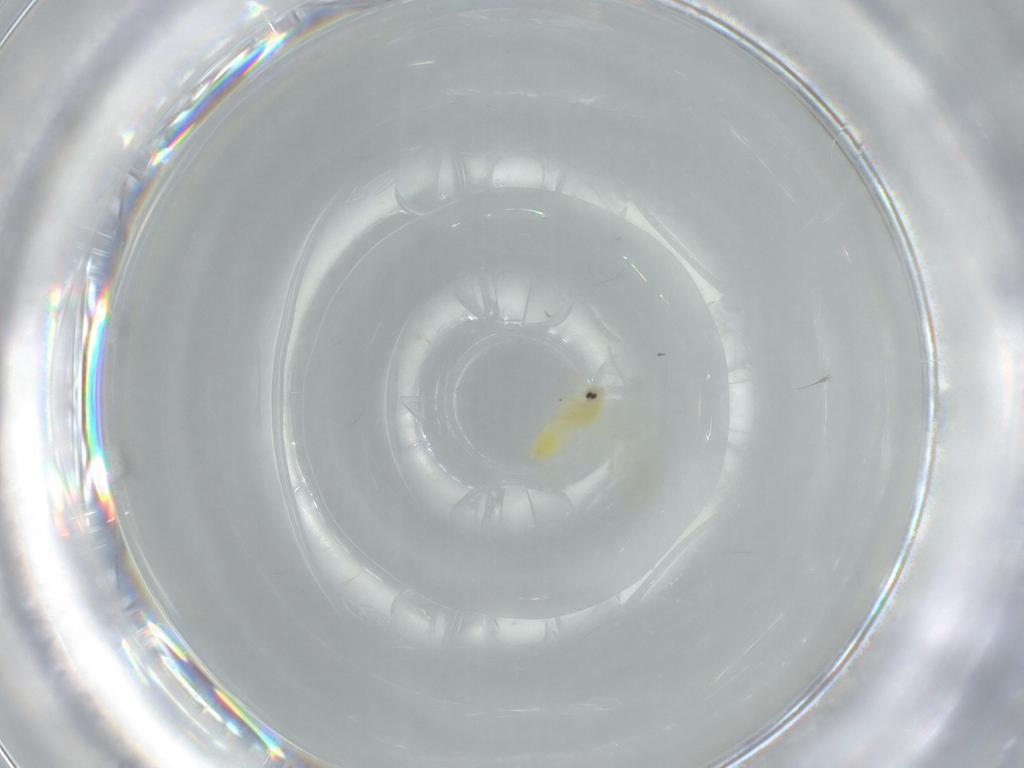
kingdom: Animalia
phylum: Arthropoda
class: Insecta
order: Hemiptera
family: Aleyrodidae
